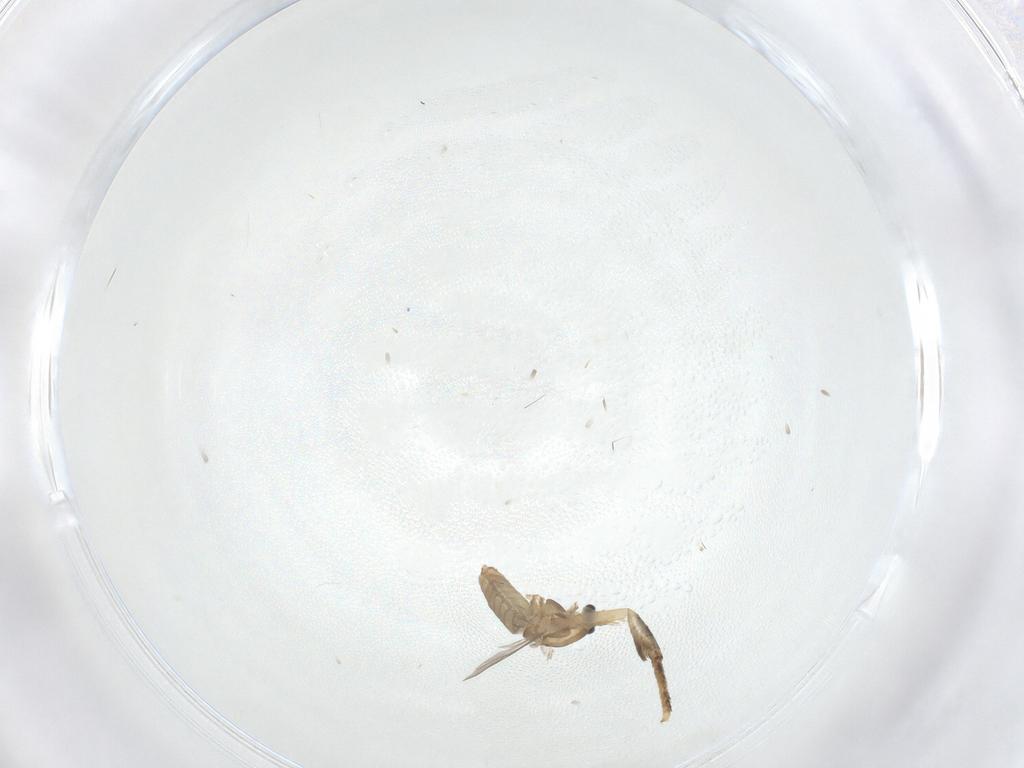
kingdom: Animalia
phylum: Arthropoda
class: Insecta
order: Diptera
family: Chironomidae
